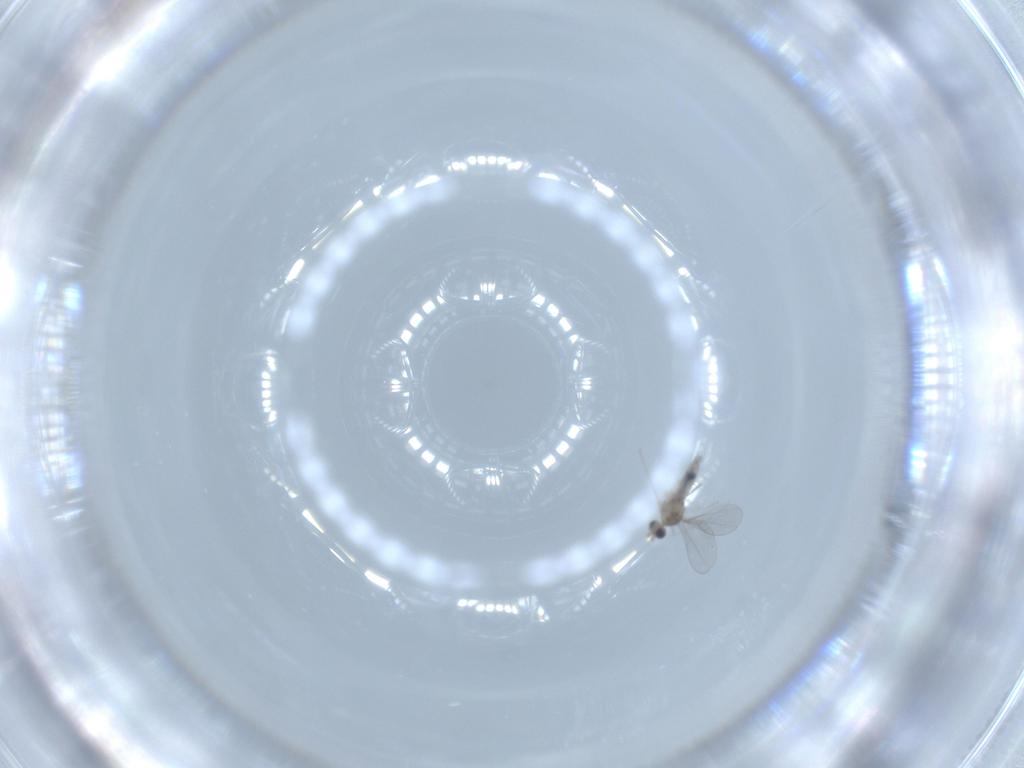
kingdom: Animalia
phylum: Arthropoda
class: Insecta
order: Diptera
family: Cecidomyiidae
